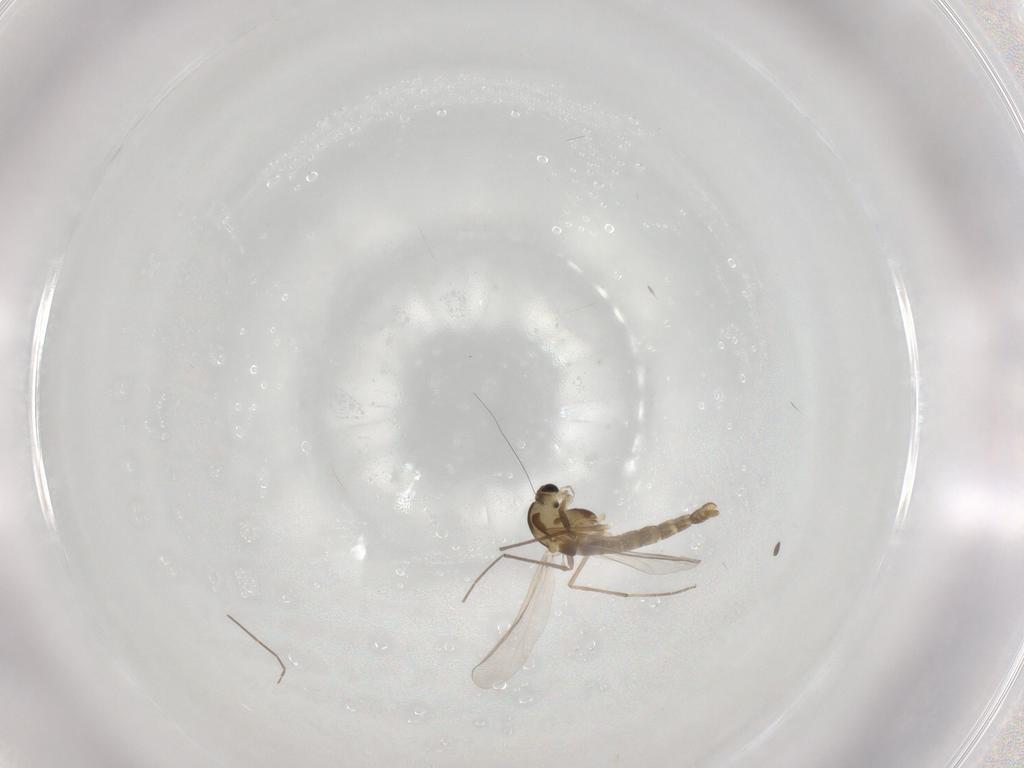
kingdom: Animalia
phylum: Arthropoda
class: Insecta
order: Diptera
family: Chironomidae
